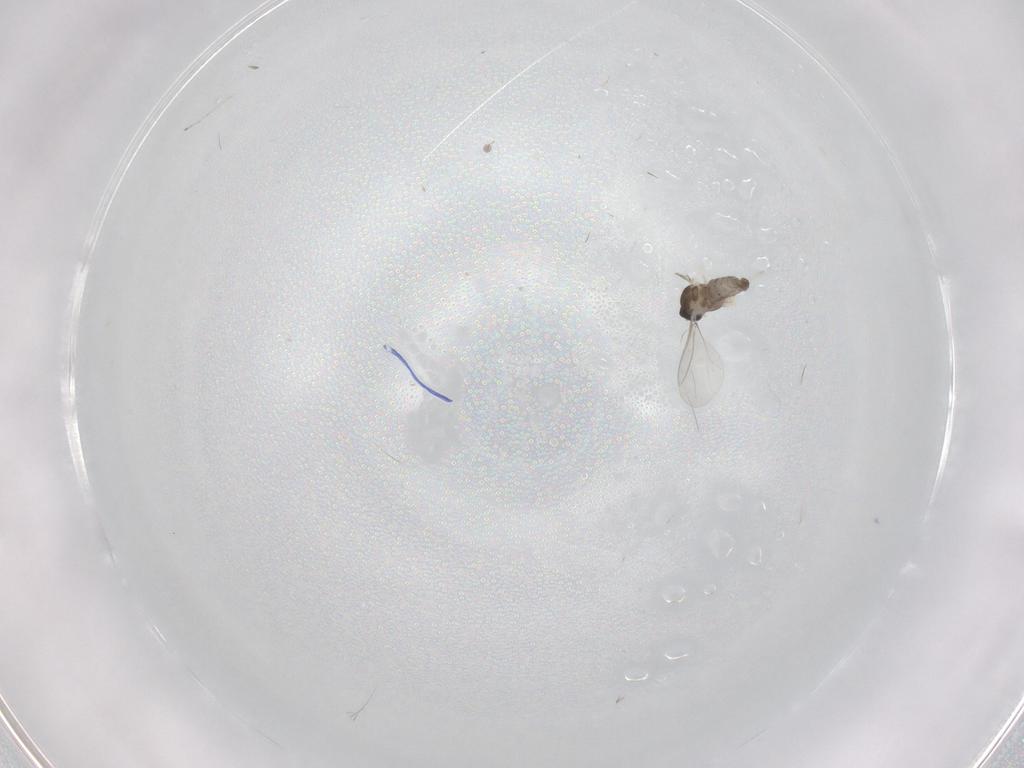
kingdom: Animalia
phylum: Arthropoda
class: Insecta
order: Diptera
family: Cecidomyiidae
